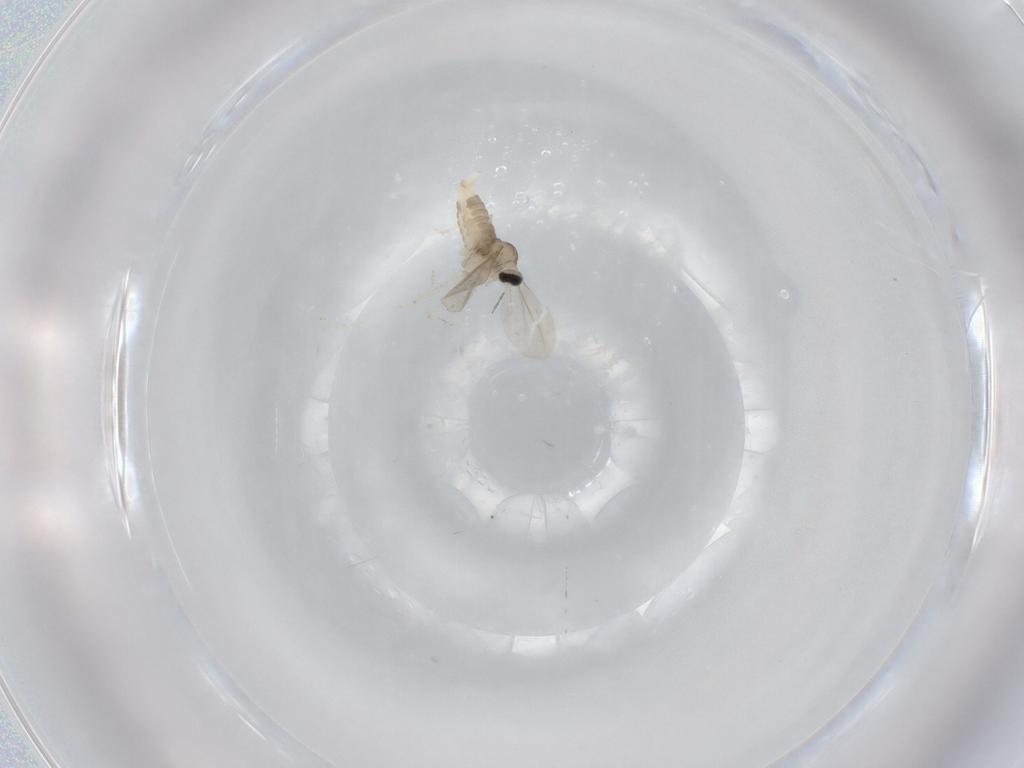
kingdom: Animalia
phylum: Arthropoda
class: Insecta
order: Diptera
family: Cecidomyiidae
